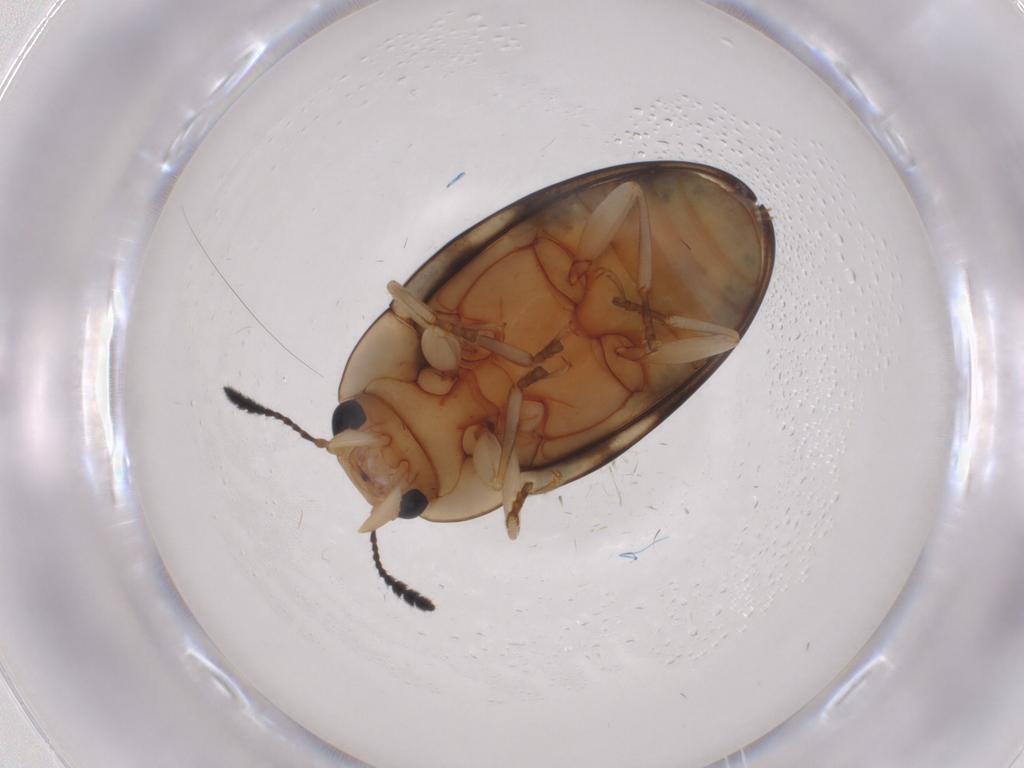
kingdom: Animalia
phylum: Arthropoda
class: Insecta
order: Coleoptera
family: Erotylidae
